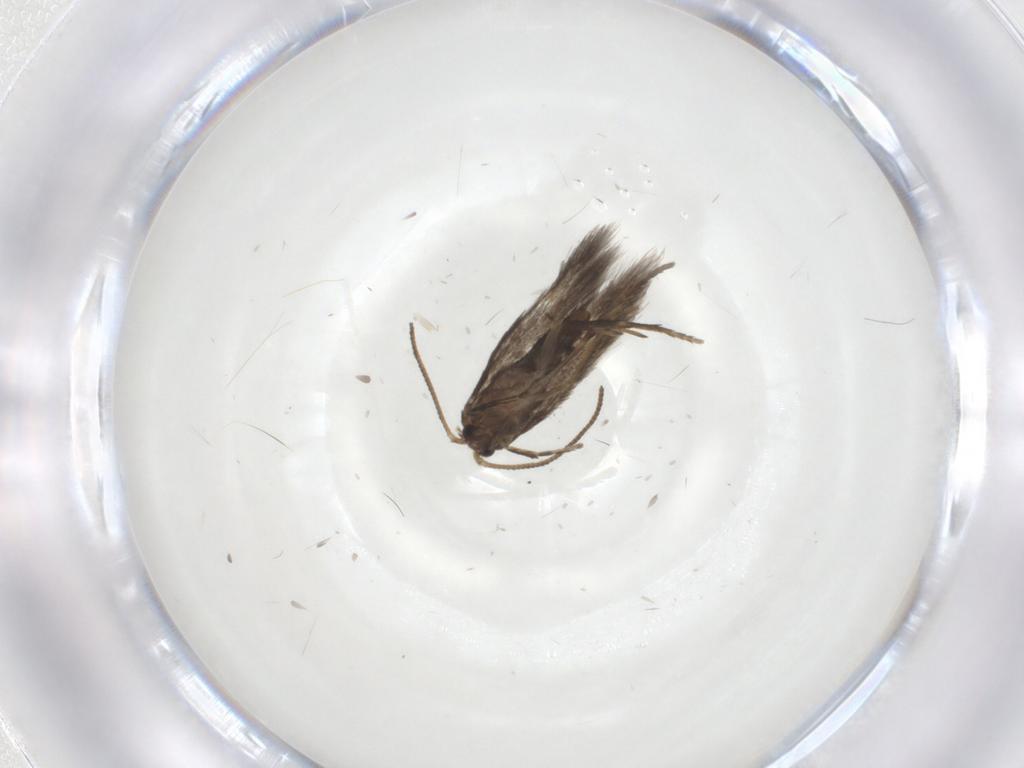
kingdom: Animalia
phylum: Arthropoda
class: Insecta
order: Lepidoptera
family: Nepticulidae
